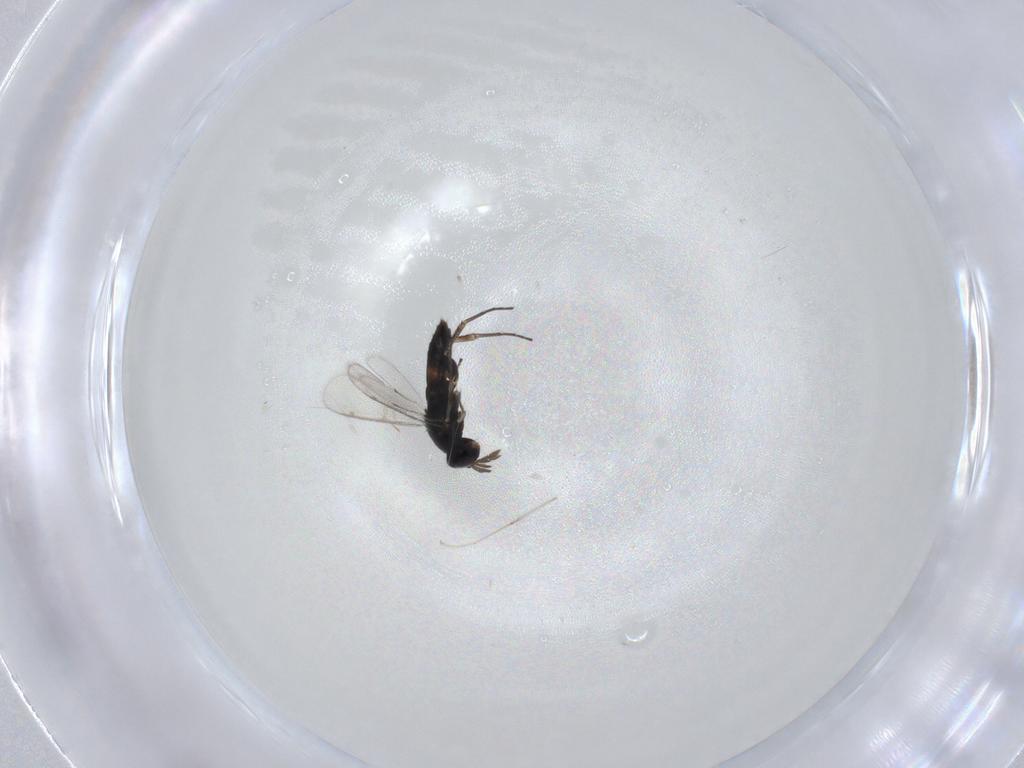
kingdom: Animalia
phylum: Arthropoda
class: Insecta
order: Hymenoptera
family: Eulophidae
